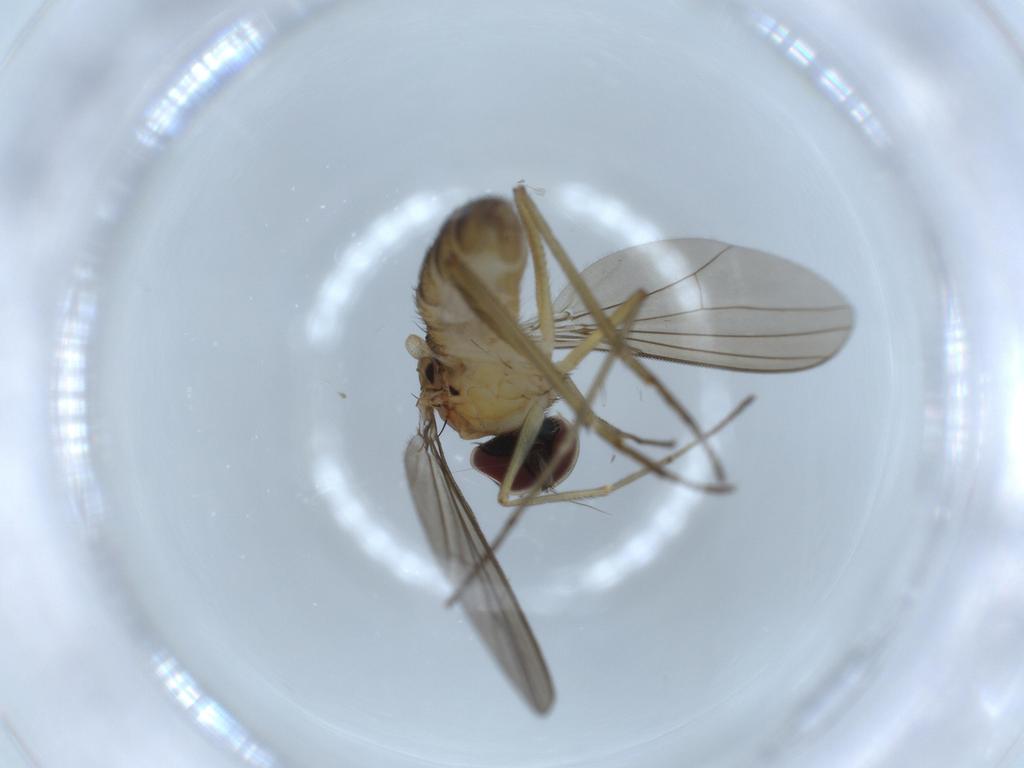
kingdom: Animalia
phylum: Arthropoda
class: Insecta
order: Diptera
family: Dolichopodidae
